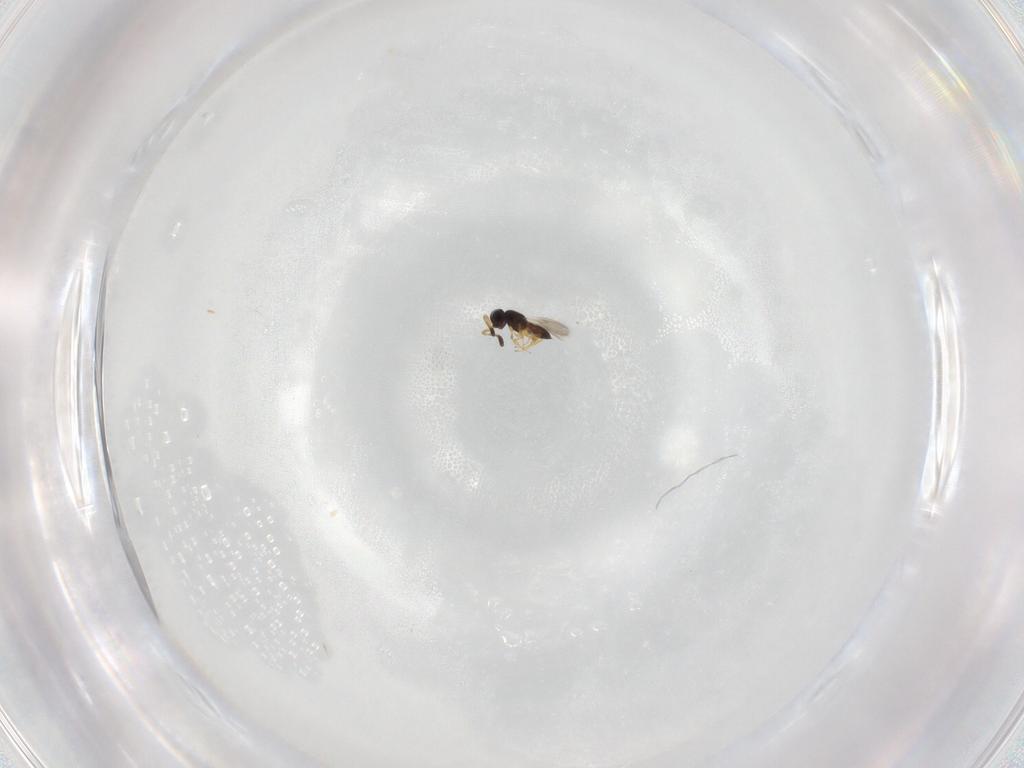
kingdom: Animalia
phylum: Arthropoda
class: Insecta
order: Hymenoptera
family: Scelionidae
